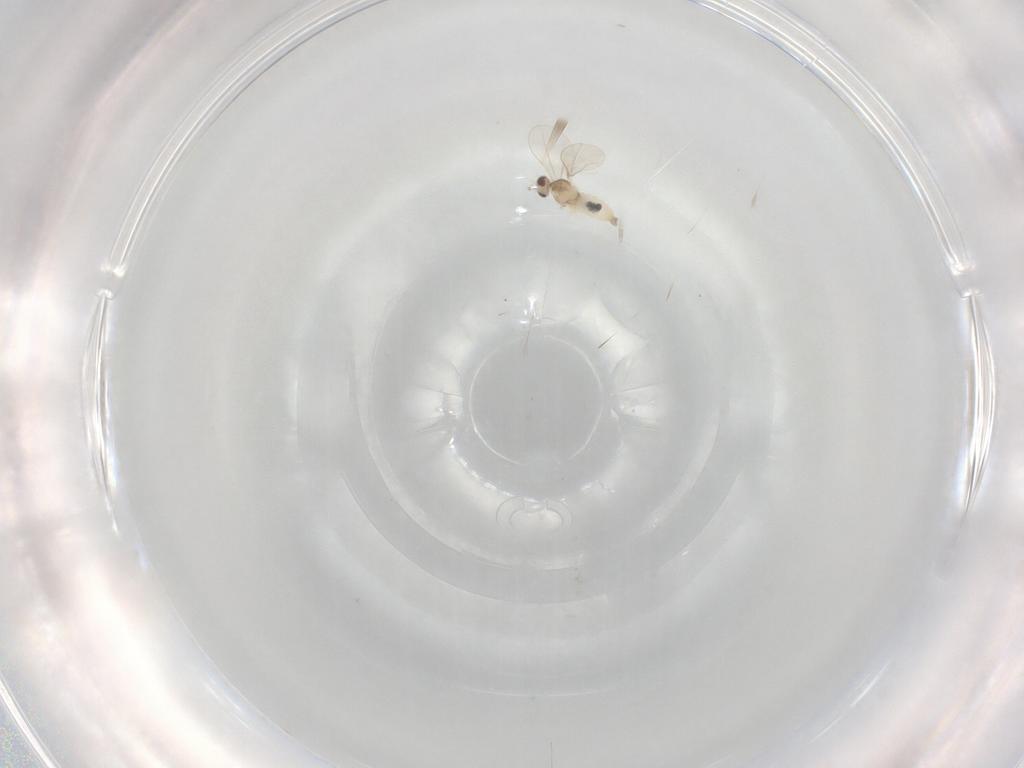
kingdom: Animalia
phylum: Arthropoda
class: Insecta
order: Diptera
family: Cecidomyiidae
